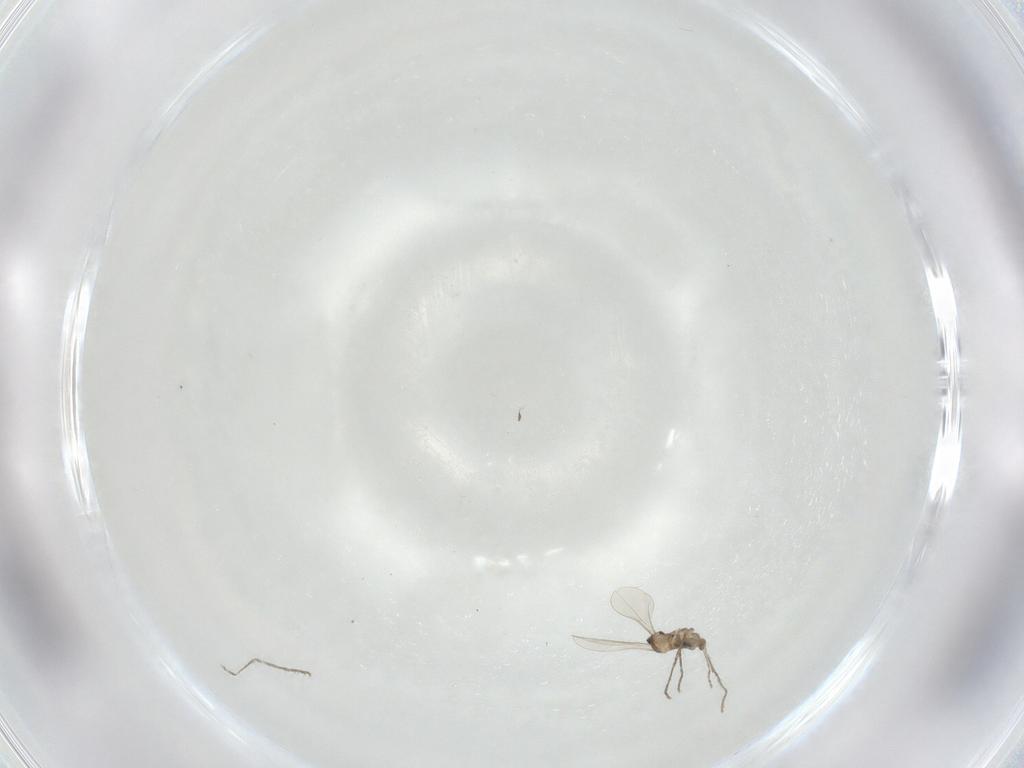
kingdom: Animalia
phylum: Arthropoda
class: Insecta
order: Diptera
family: Cecidomyiidae
